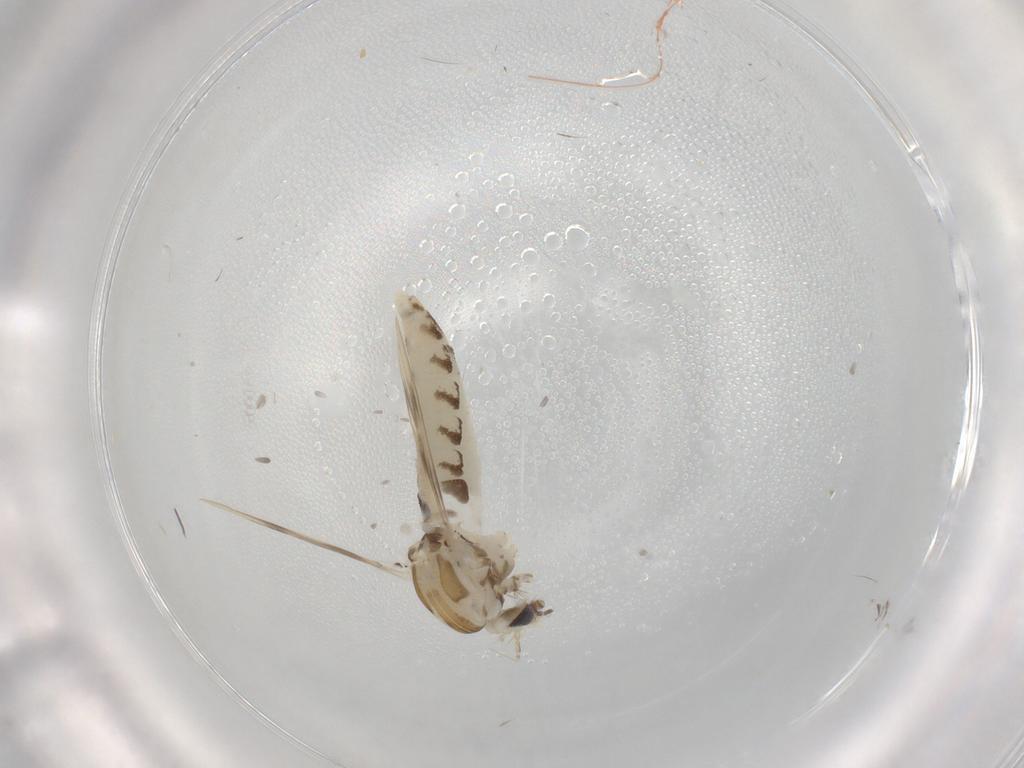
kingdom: Animalia
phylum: Arthropoda
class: Insecta
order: Diptera
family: Corethrellidae
